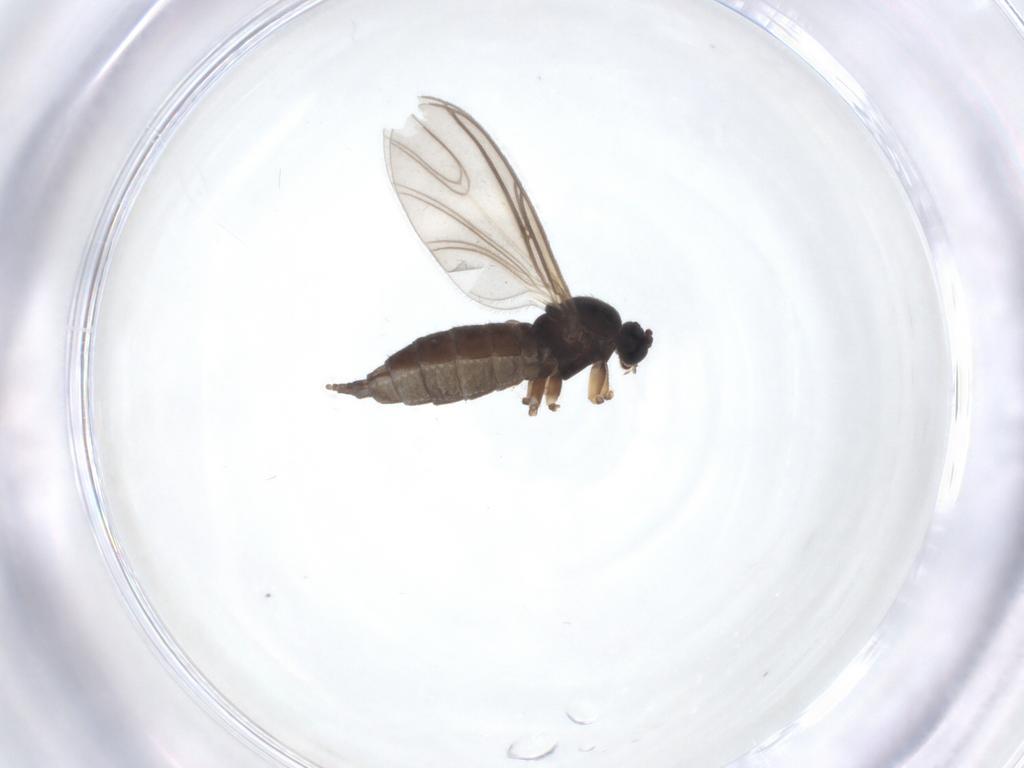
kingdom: Animalia
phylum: Arthropoda
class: Insecta
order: Diptera
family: Sciaridae
